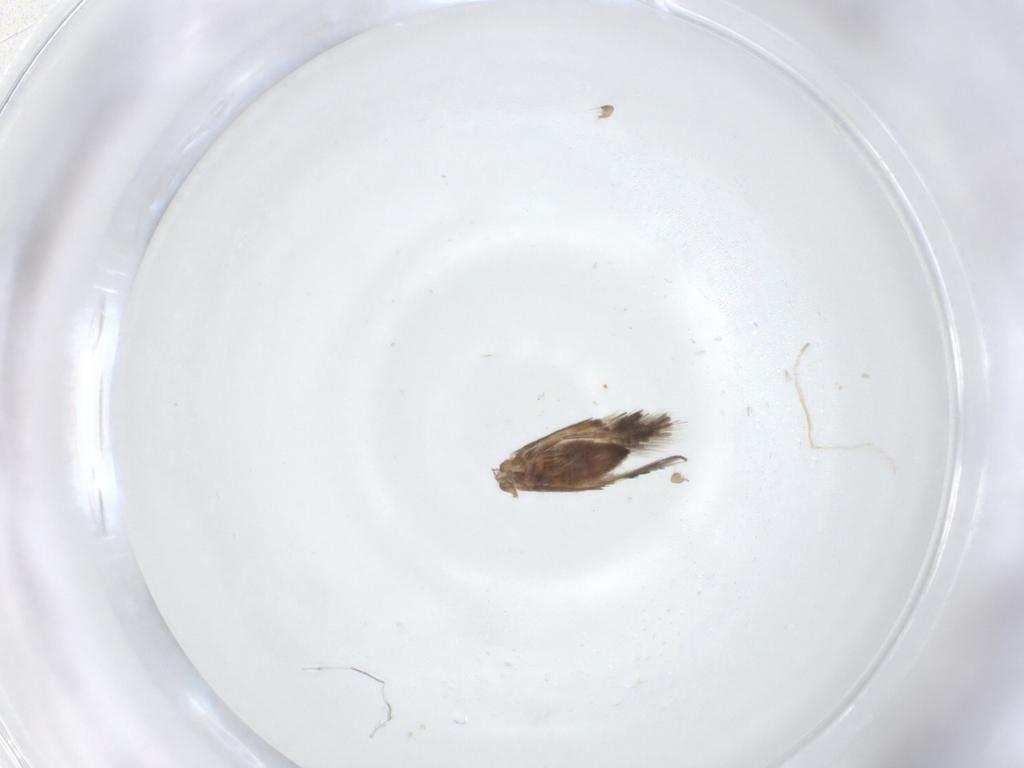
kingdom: Animalia
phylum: Arthropoda
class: Insecta
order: Lepidoptera
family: Heliozelidae
